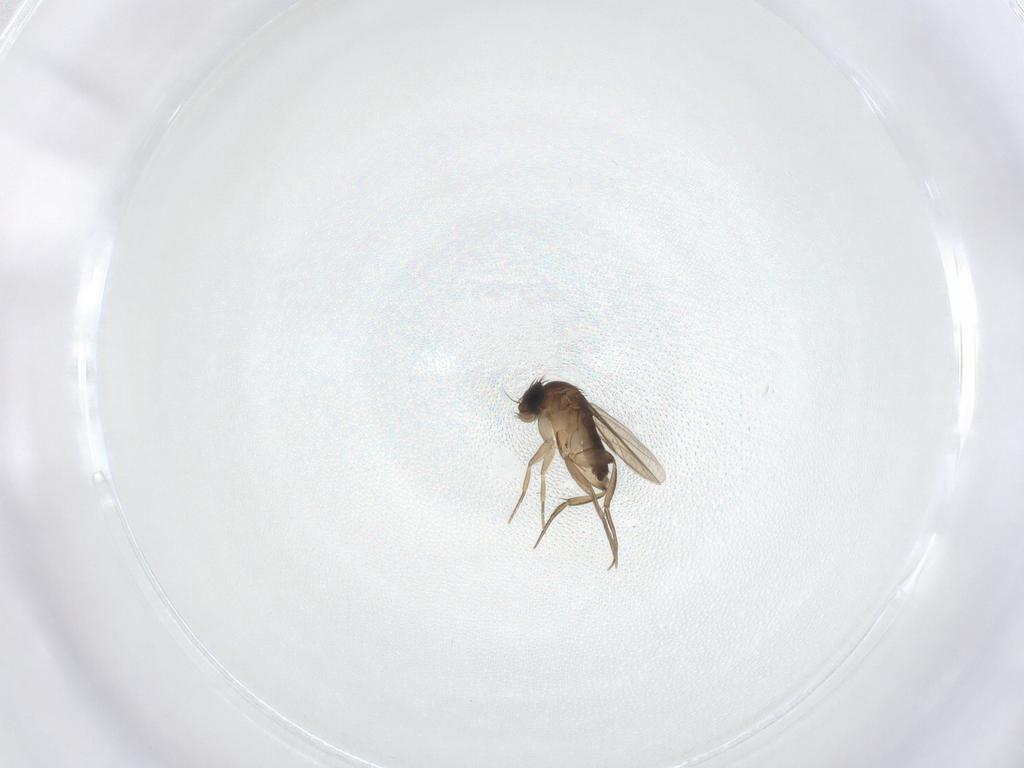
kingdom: Animalia
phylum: Arthropoda
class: Insecta
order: Diptera
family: Phoridae
